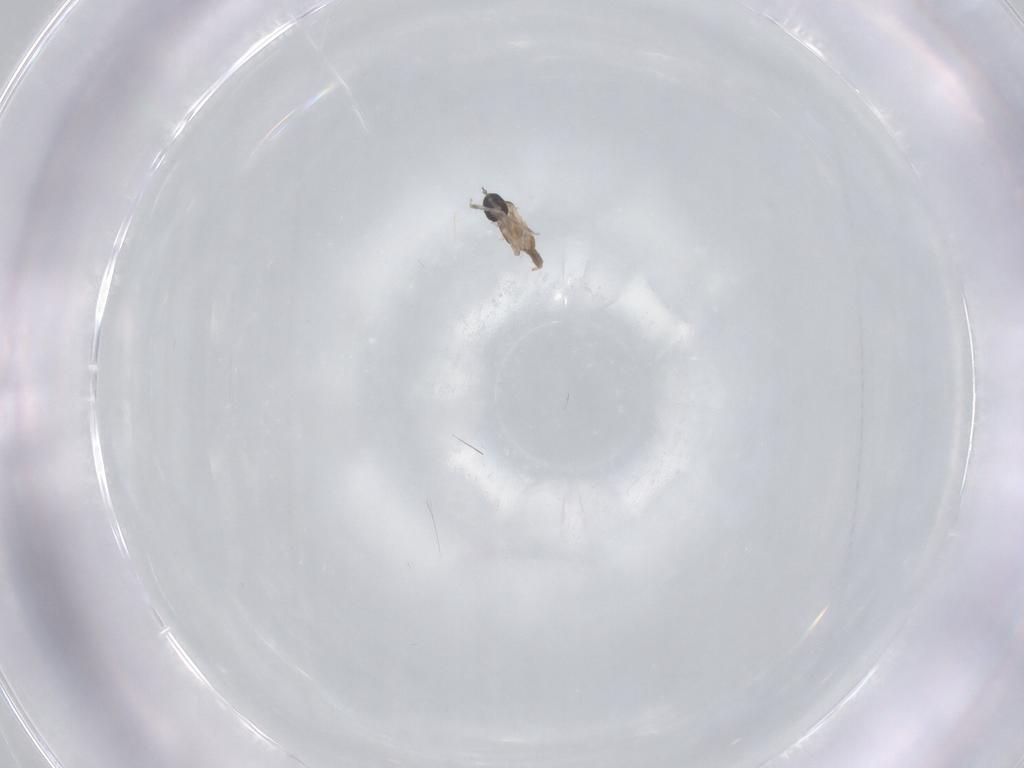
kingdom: Animalia
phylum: Arthropoda
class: Insecta
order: Diptera
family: Cecidomyiidae
